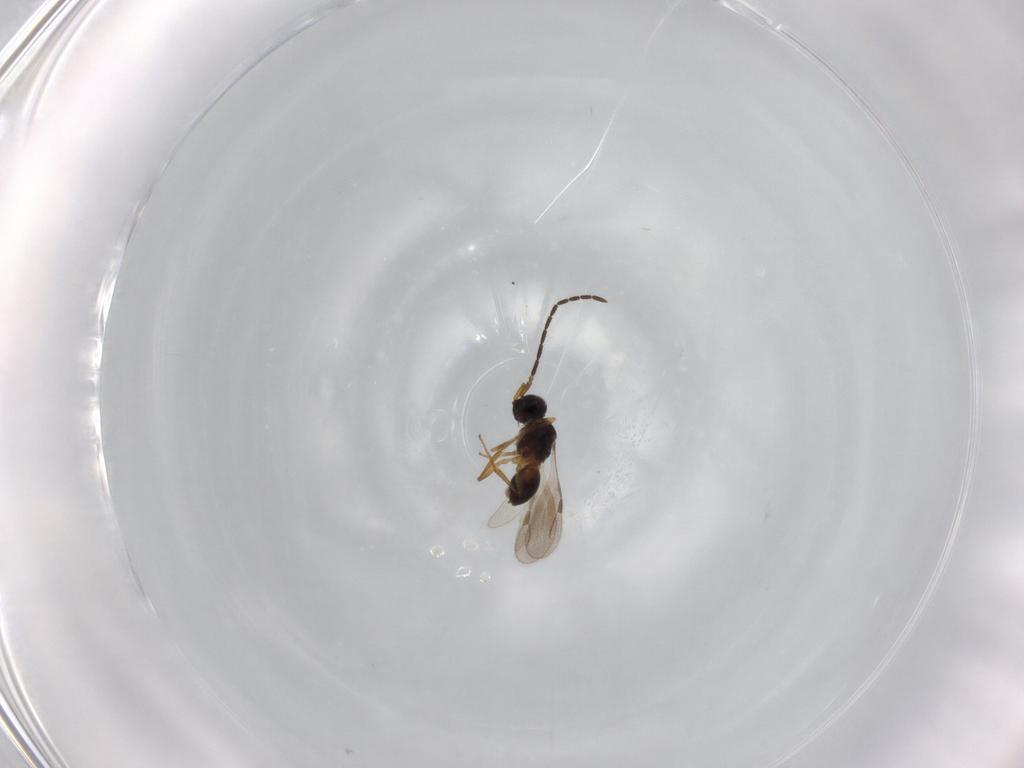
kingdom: Animalia
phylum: Arthropoda
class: Insecta
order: Hymenoptera
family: Megaspilidae
